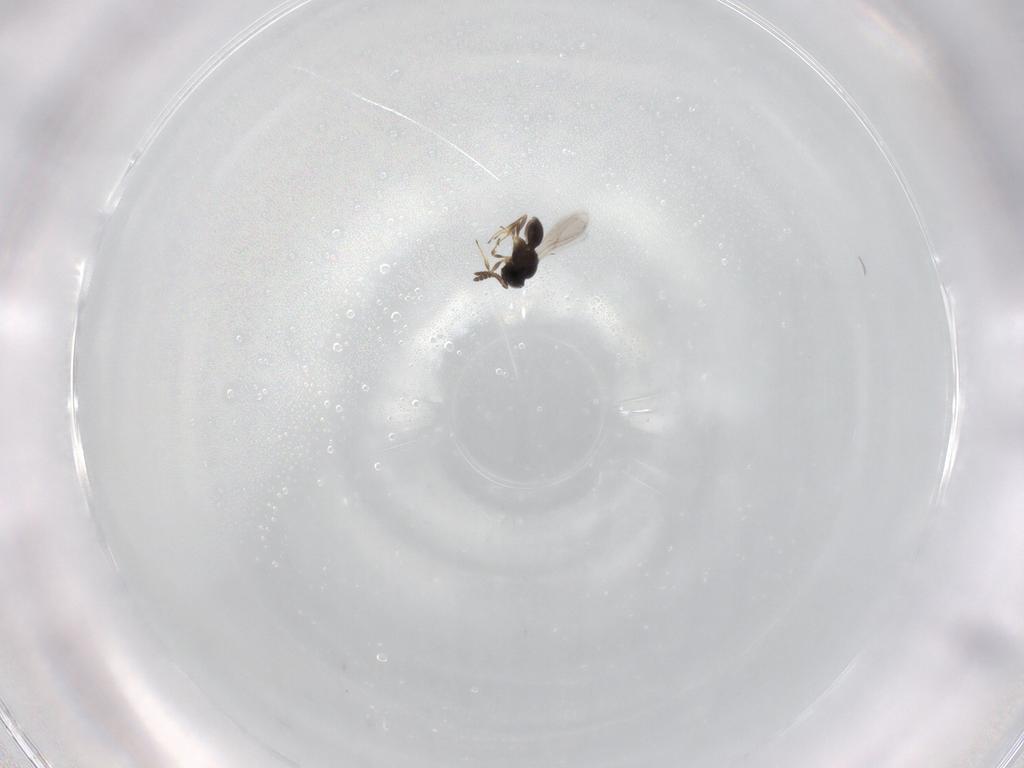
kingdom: Animalia
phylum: Arthropoda
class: Insecta
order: Hymenoptera
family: Scelionidae
